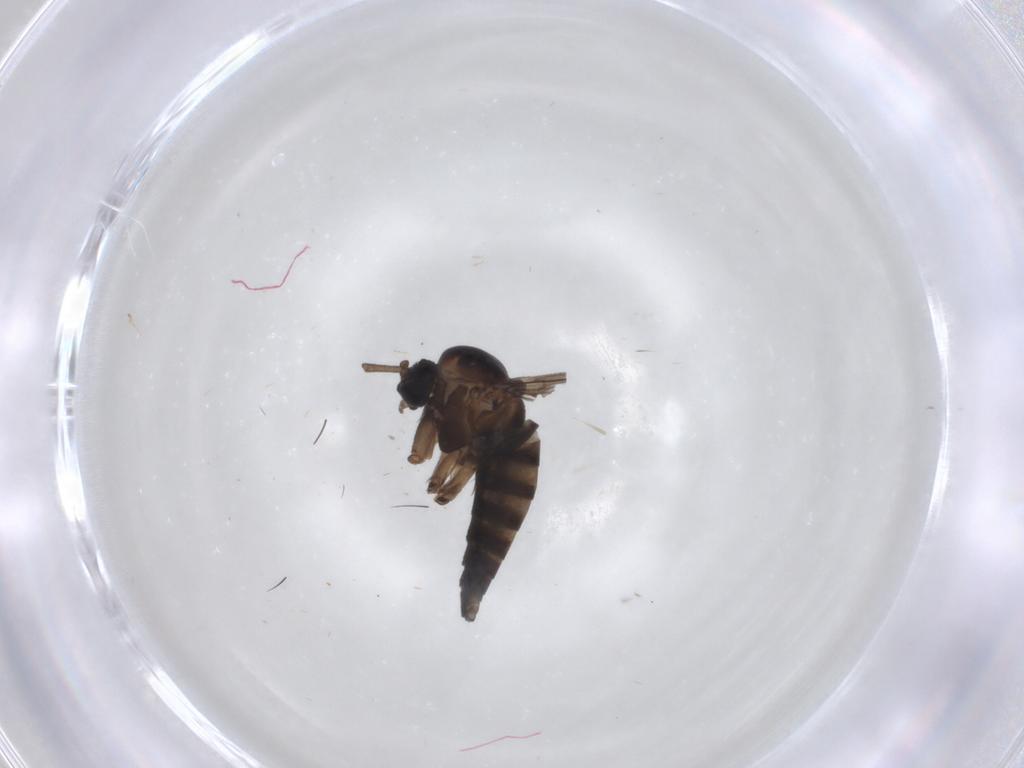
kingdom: Animalia
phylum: Arthropoda
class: Insecta
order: Diptera
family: Sciaridae
